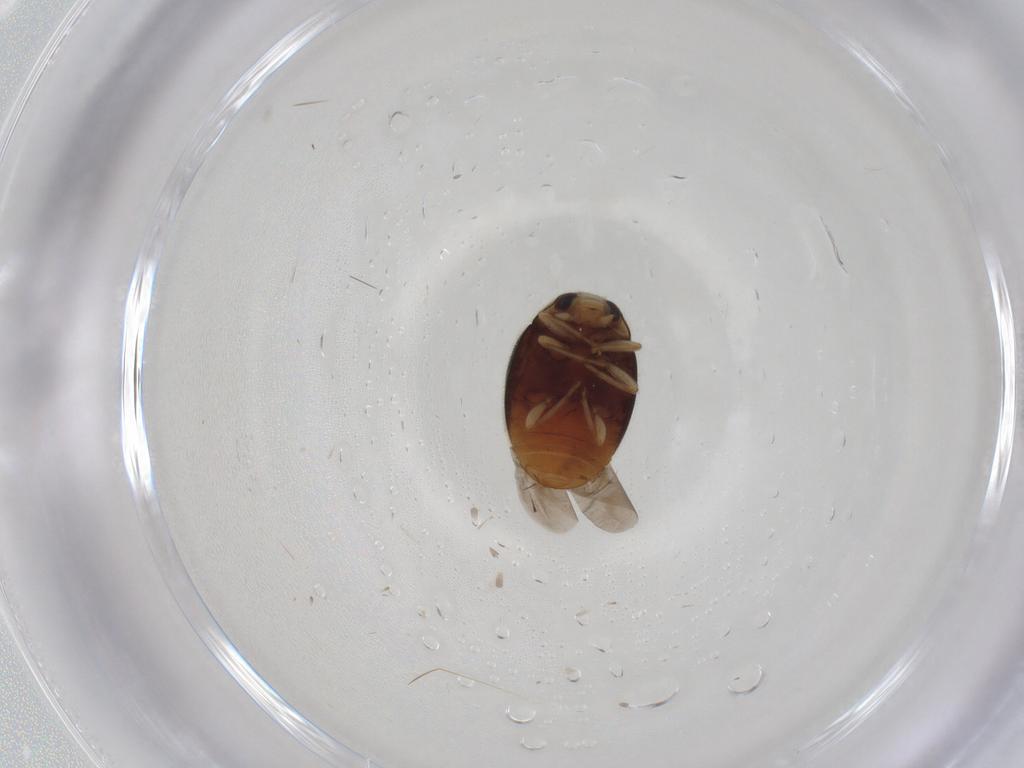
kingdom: Animalia
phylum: Arthropoda
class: Insecta
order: Coleoptera
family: Coccinellidae
